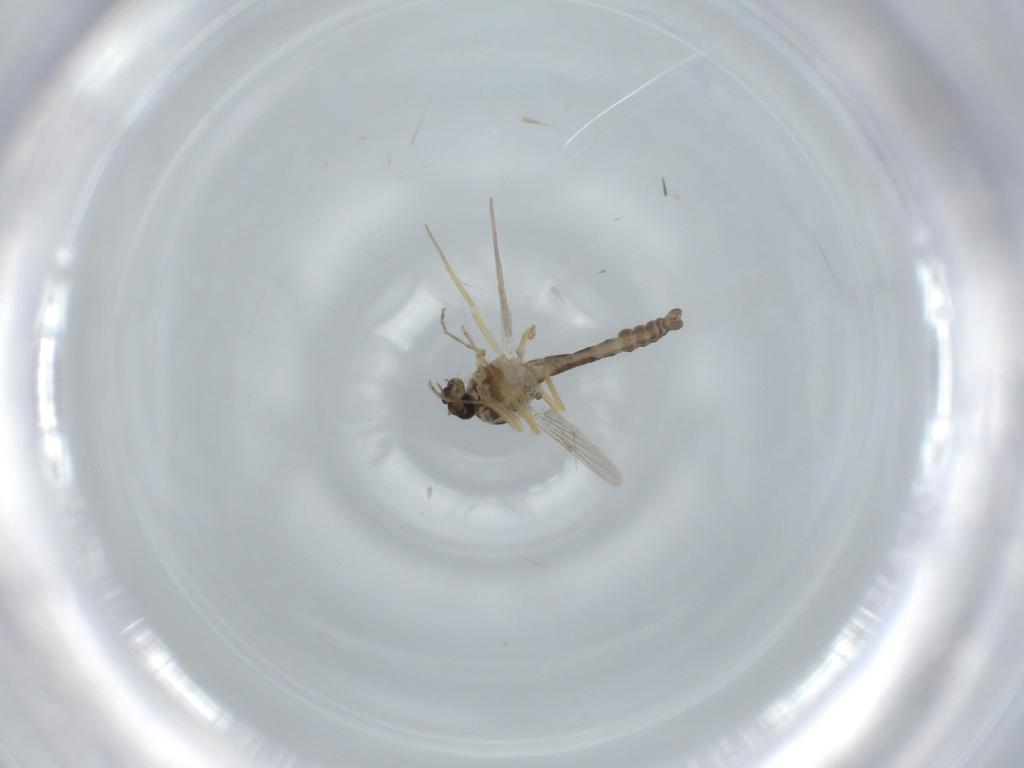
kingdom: Animalia
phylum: Arthropoda
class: Insecta
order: Diptera
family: Ceratopogonidae
